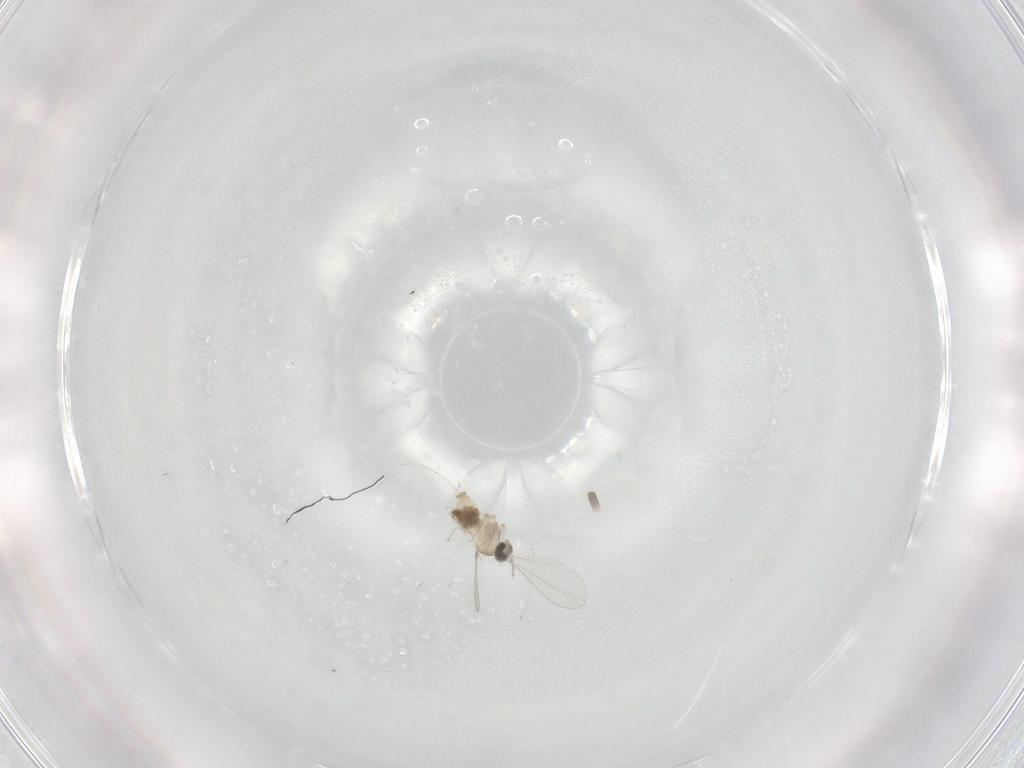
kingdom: Animalia
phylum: Arthropoda
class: Insecta
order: Diptera
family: Cecidomyiidae
